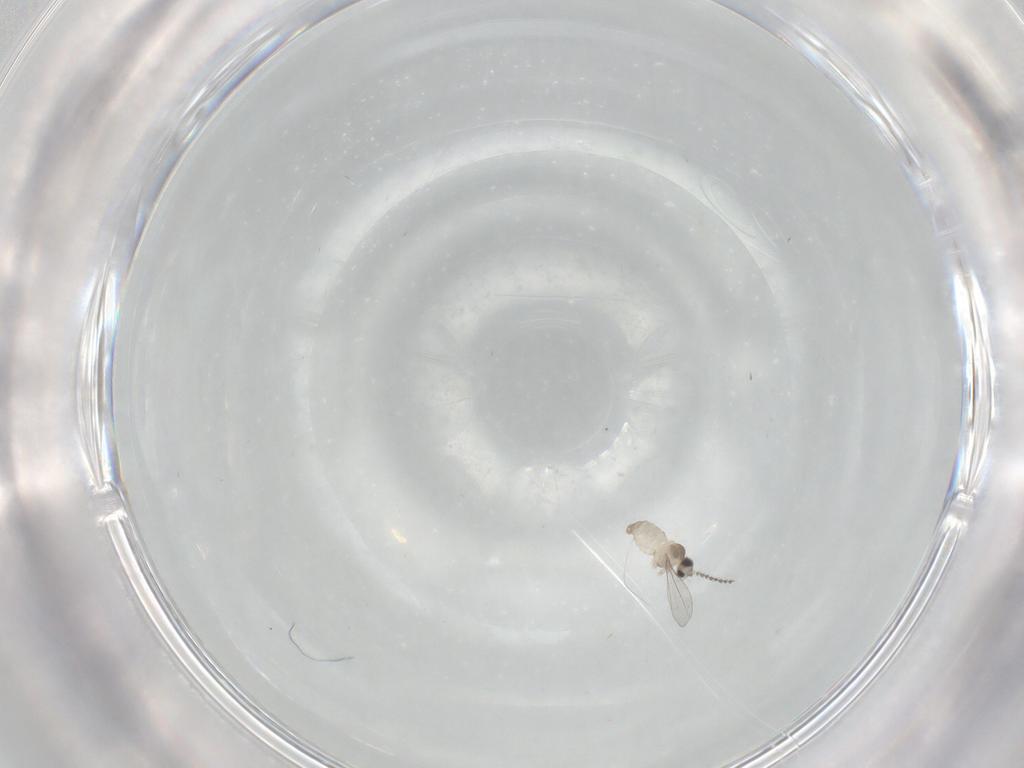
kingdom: Animalia
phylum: Arthropoda
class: Insecta
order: Diptera
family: Cecidomyiidae
